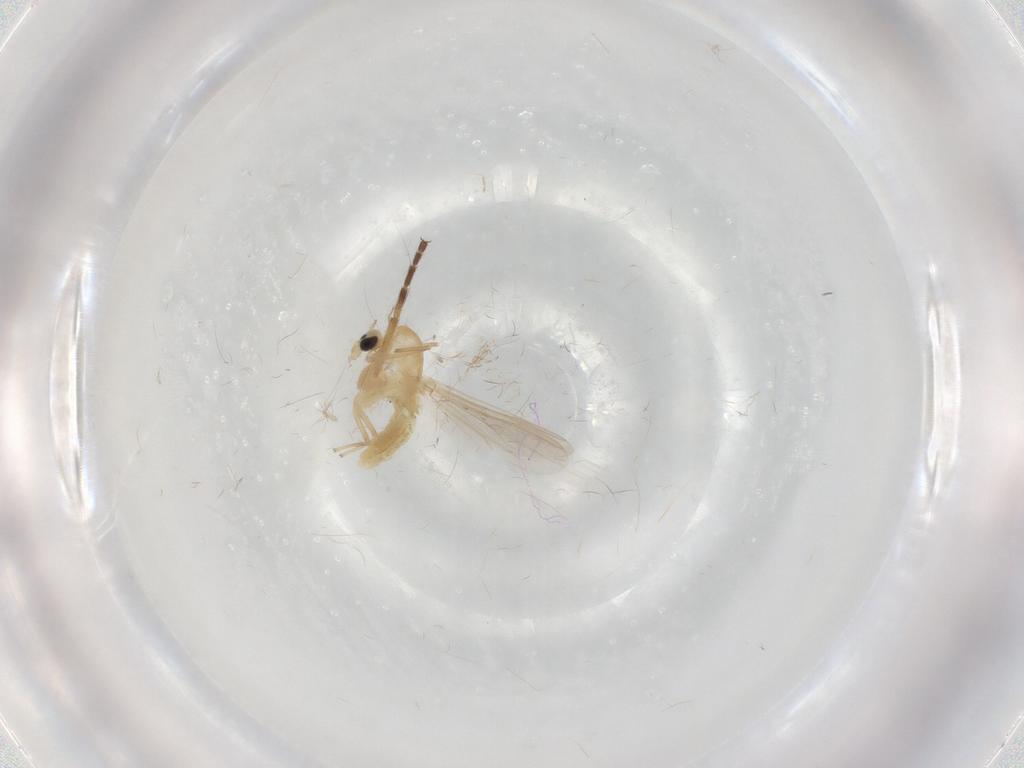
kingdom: Animalia
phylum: Arthropoda
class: Insecta
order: Diptera
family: Chironomidae
